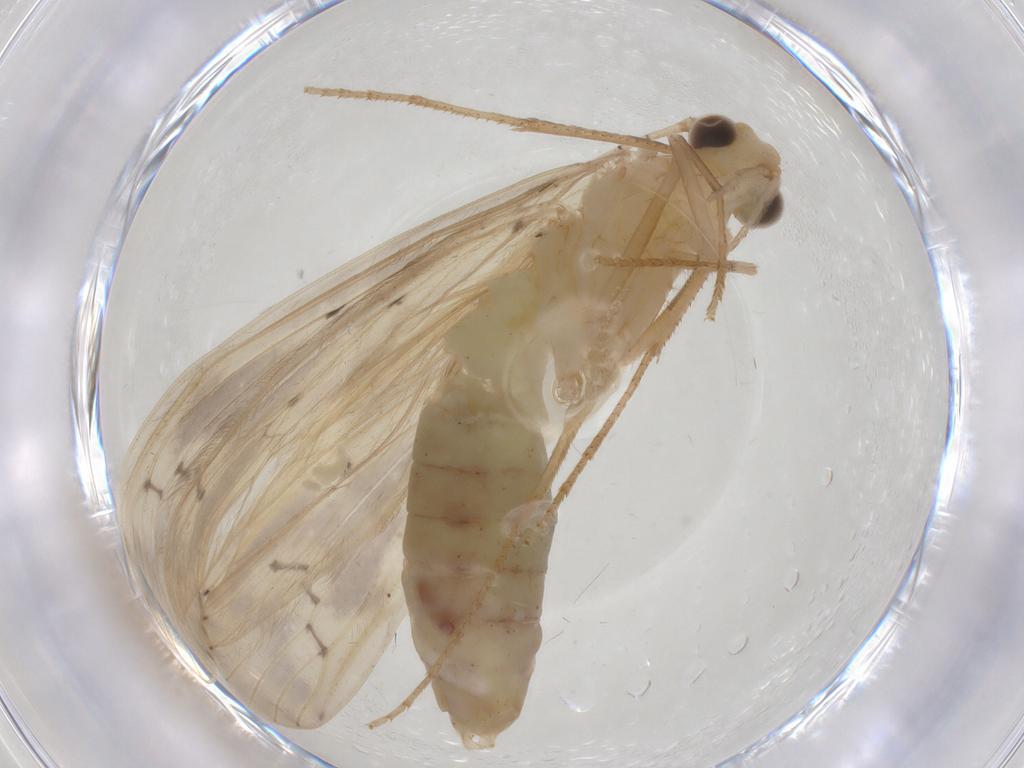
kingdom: Animalia
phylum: Arthropoda
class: Insecta
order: Trichoptera
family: Leptoceridae
